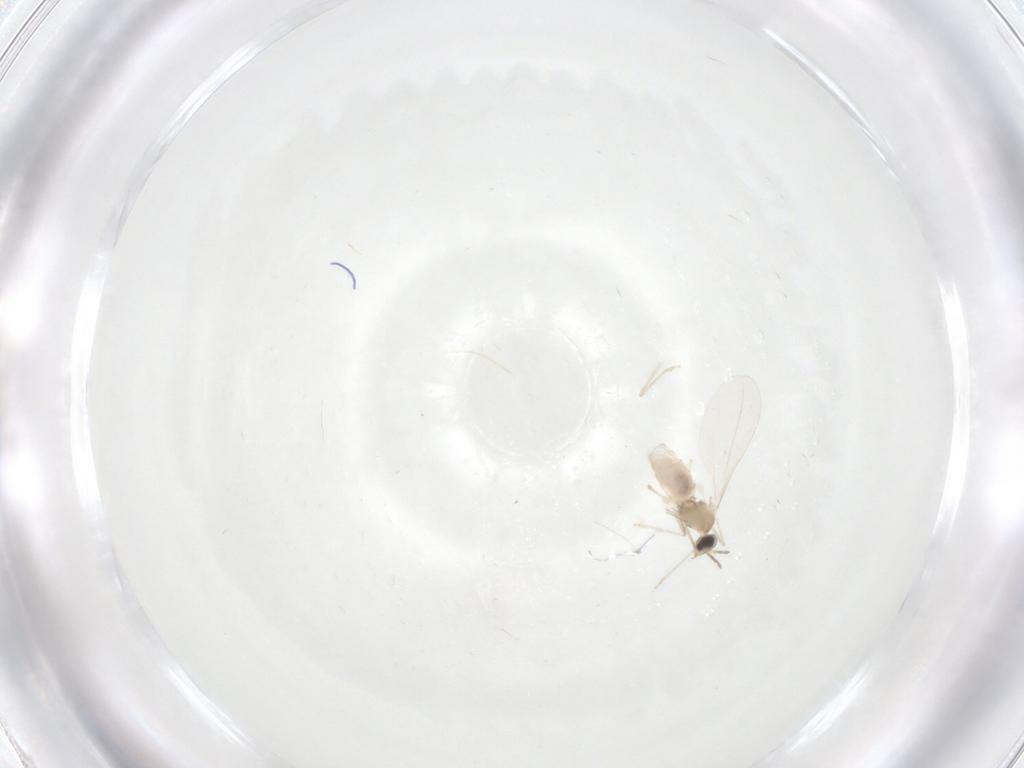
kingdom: Animalia
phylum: Arthropoda
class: Insecta
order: Diptera
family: Cecidomyiidae
